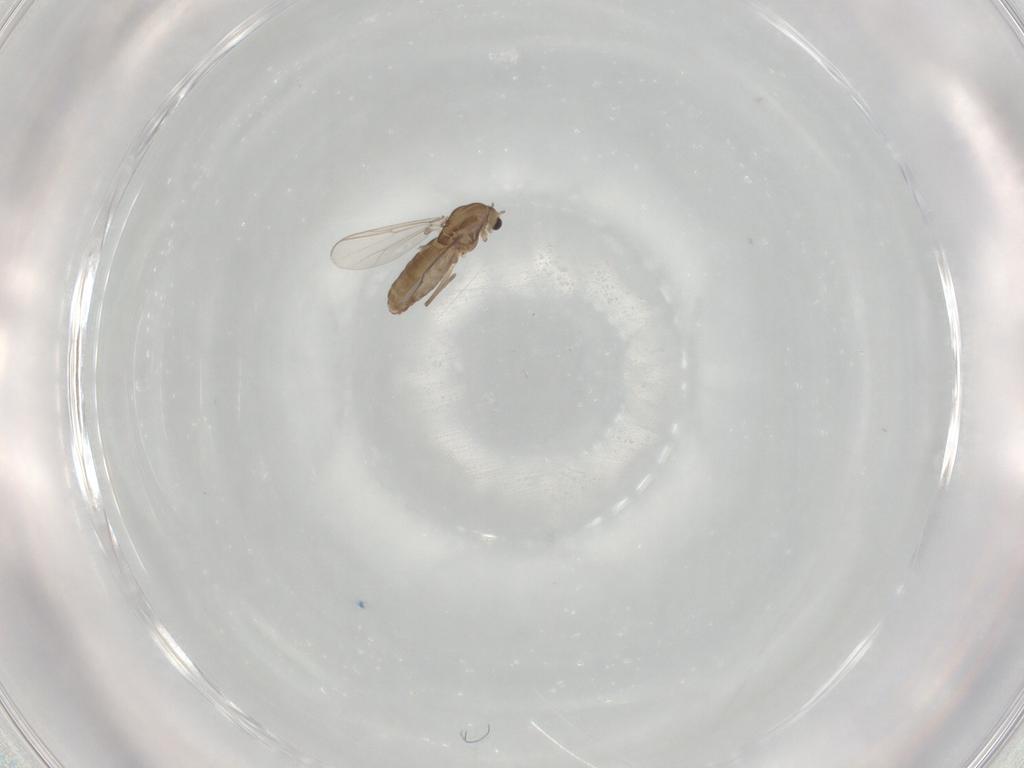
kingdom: Animalia
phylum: Arthropoda
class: Insecta
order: Diptera
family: Chironomidae
